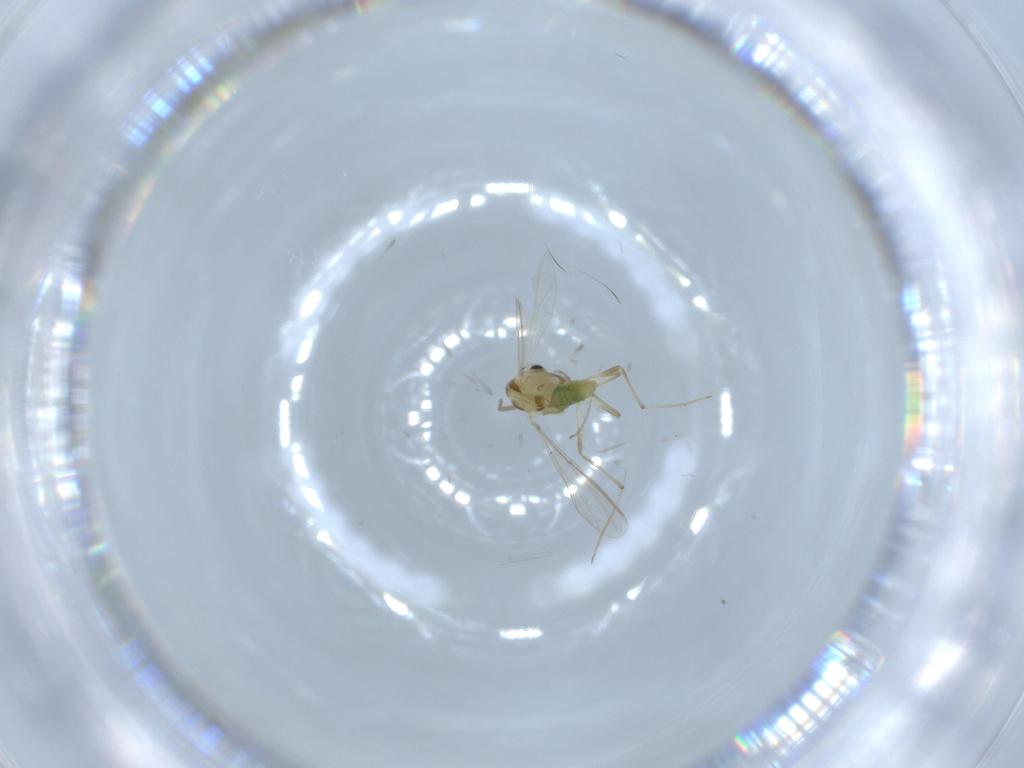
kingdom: Animalia
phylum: Arthropoda
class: Insecta
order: Diptera
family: Chironomidae
